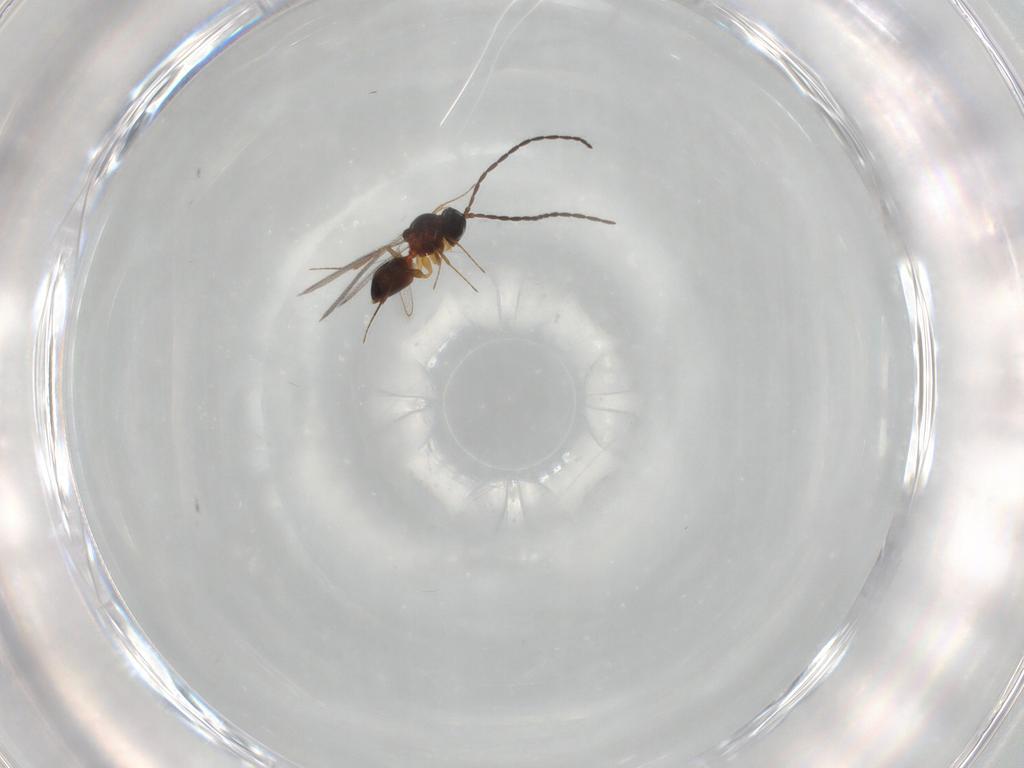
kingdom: Animalia
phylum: Arthropoda
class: Insecta
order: Hymenoptera
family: Figitidae
